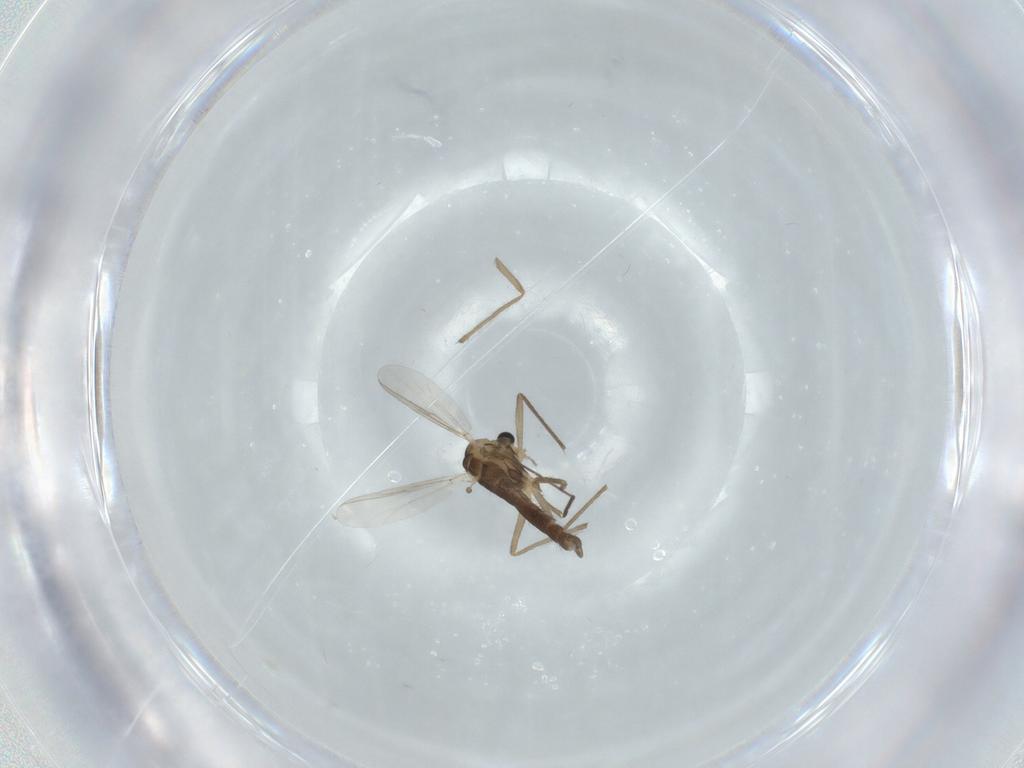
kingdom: Animalia
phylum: Arthropoda
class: Insecta
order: Diptera
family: Chironomidae
